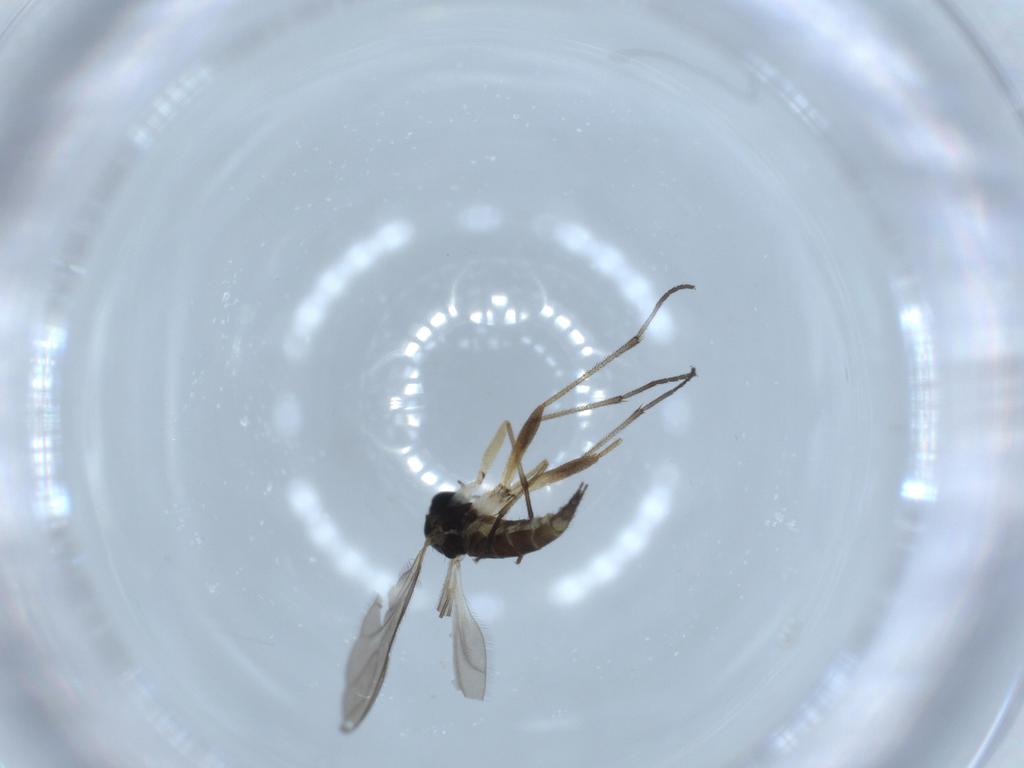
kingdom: Animalia
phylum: Arthropoda
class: Insecta
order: Diptera
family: Sciaridae
